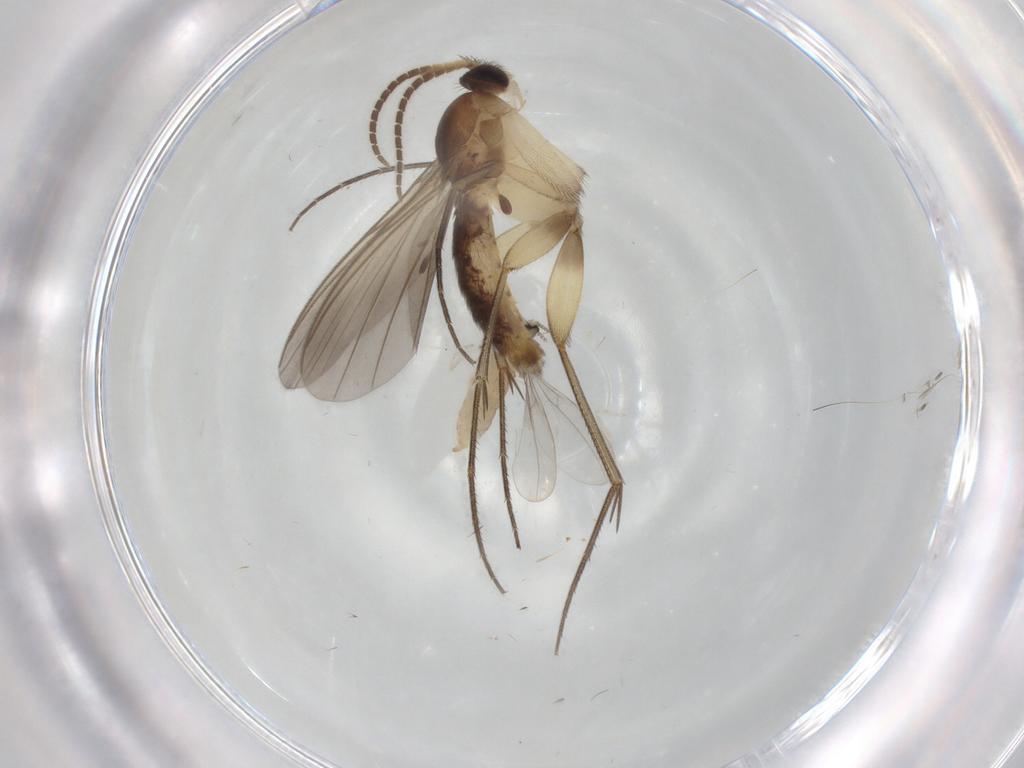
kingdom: Animalia
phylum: Arthropoda
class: Insecta
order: Diptera
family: Mycetophilidae
